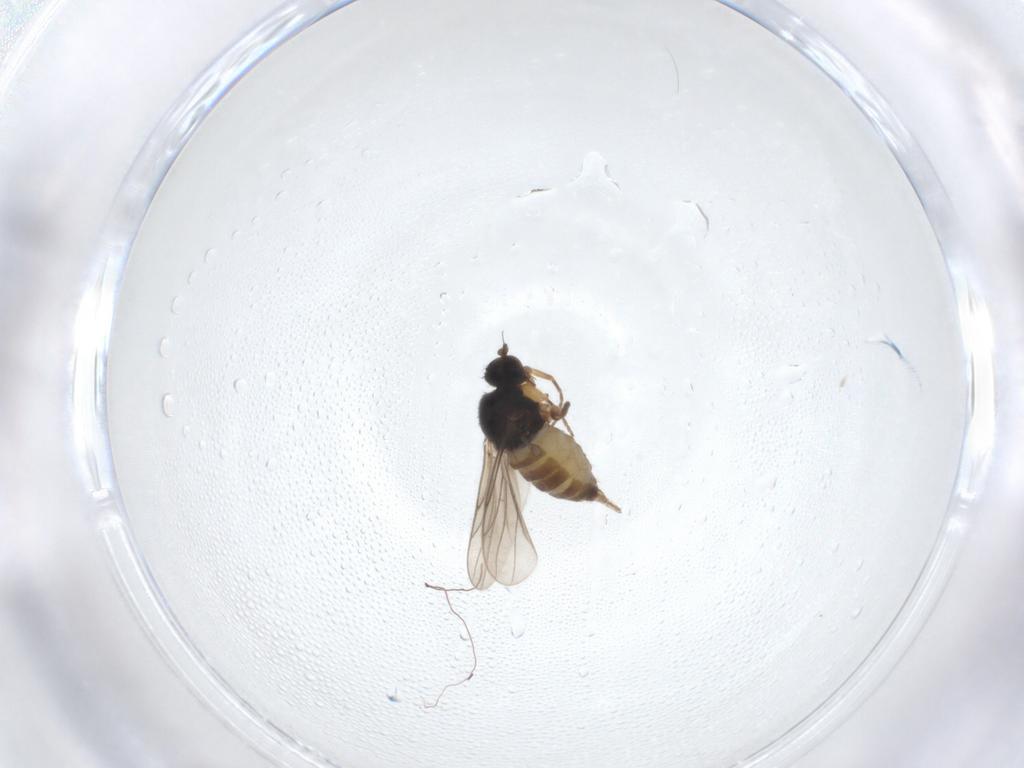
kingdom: Animalia
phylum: Arthropoda
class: Insecta
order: Diptera
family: Hybotidae
